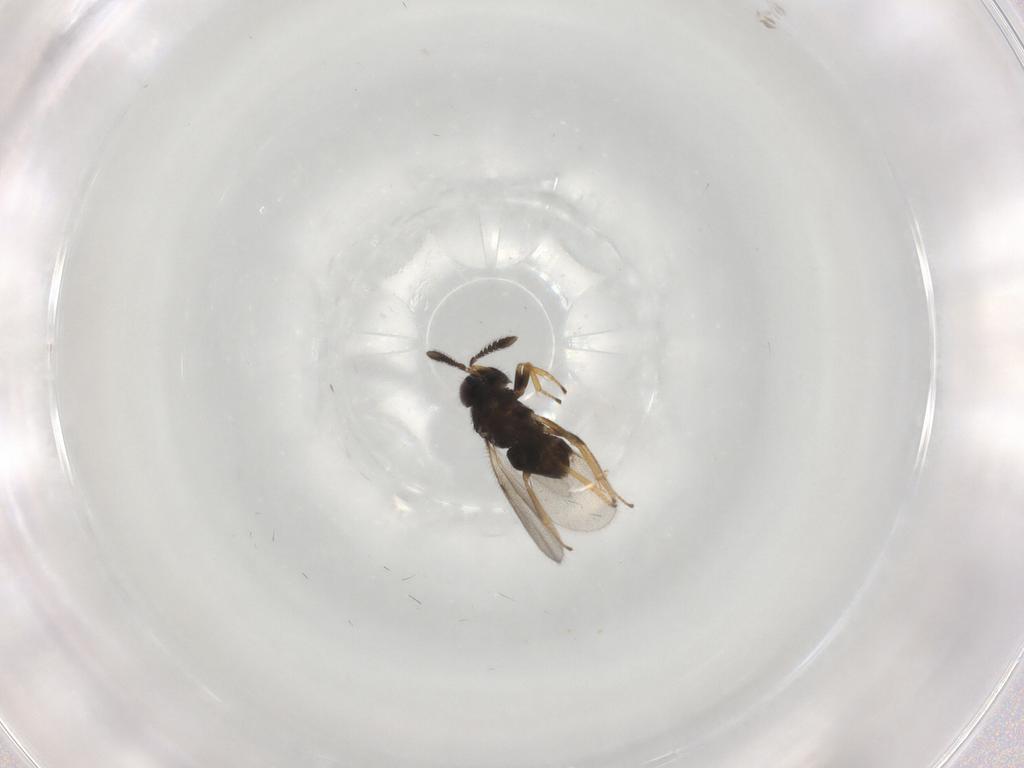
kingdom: Animalia
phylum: Arthropoda
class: Insecta
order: Hymenoptera
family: Encyrtidae
